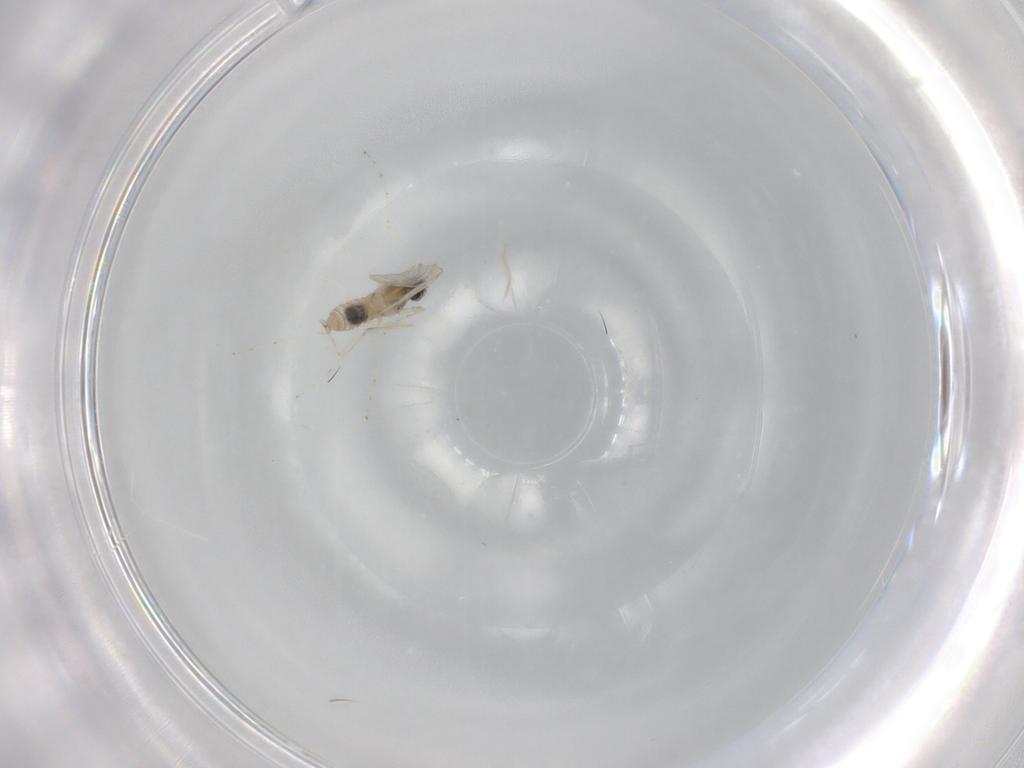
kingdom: Animalia
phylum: Arthropoda
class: Insecta
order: Diptera
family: Cecidomyiidae
